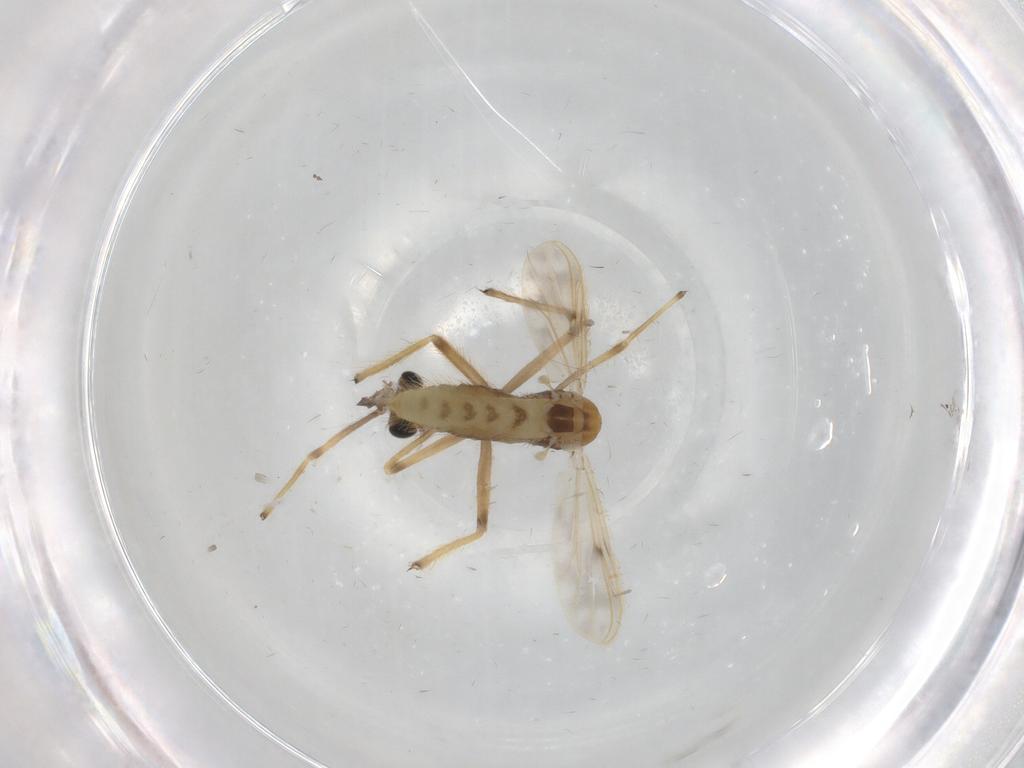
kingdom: Animalia
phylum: Arthropoda
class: Insecta
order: Diptera
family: Chironomidae
